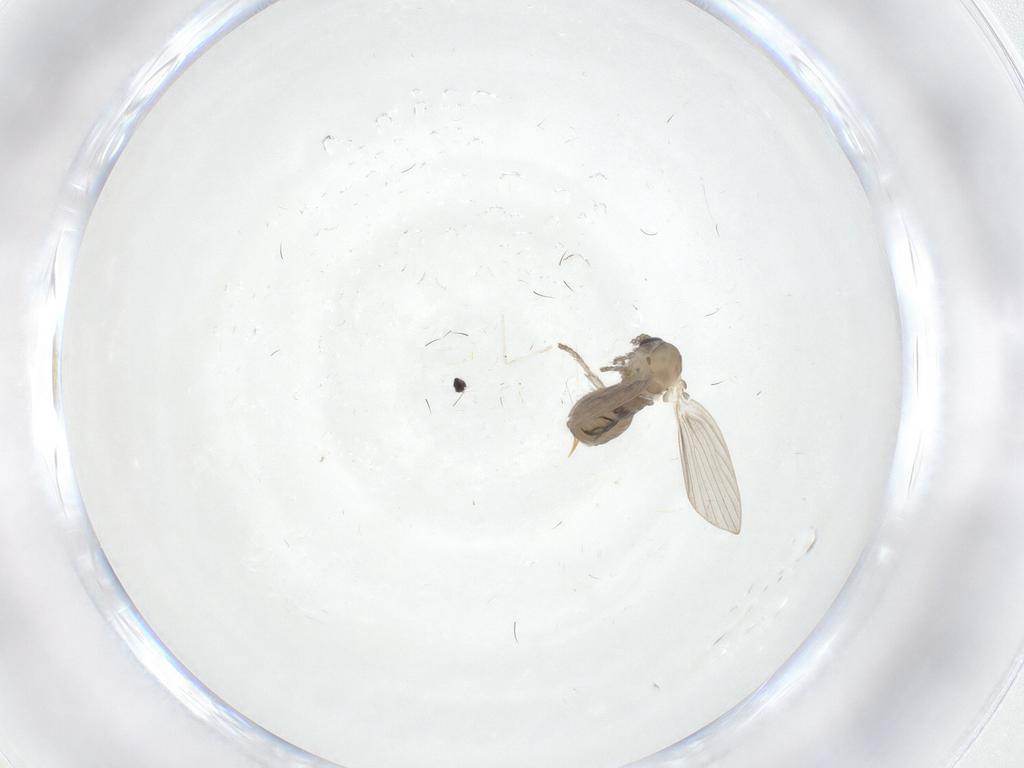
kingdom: Animalia
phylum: Arthropoda
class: Insecta
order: Diptera
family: Psychodidae
